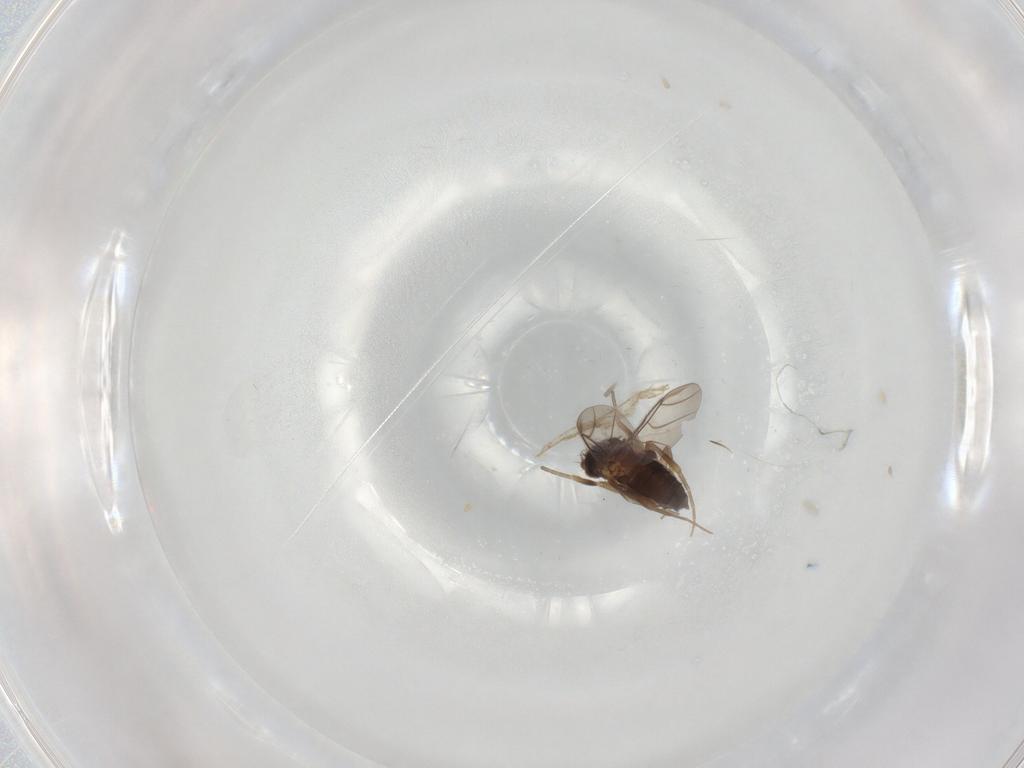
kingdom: Animalia
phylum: Arthropoda
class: Insecta
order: Diptera
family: Phoridae
